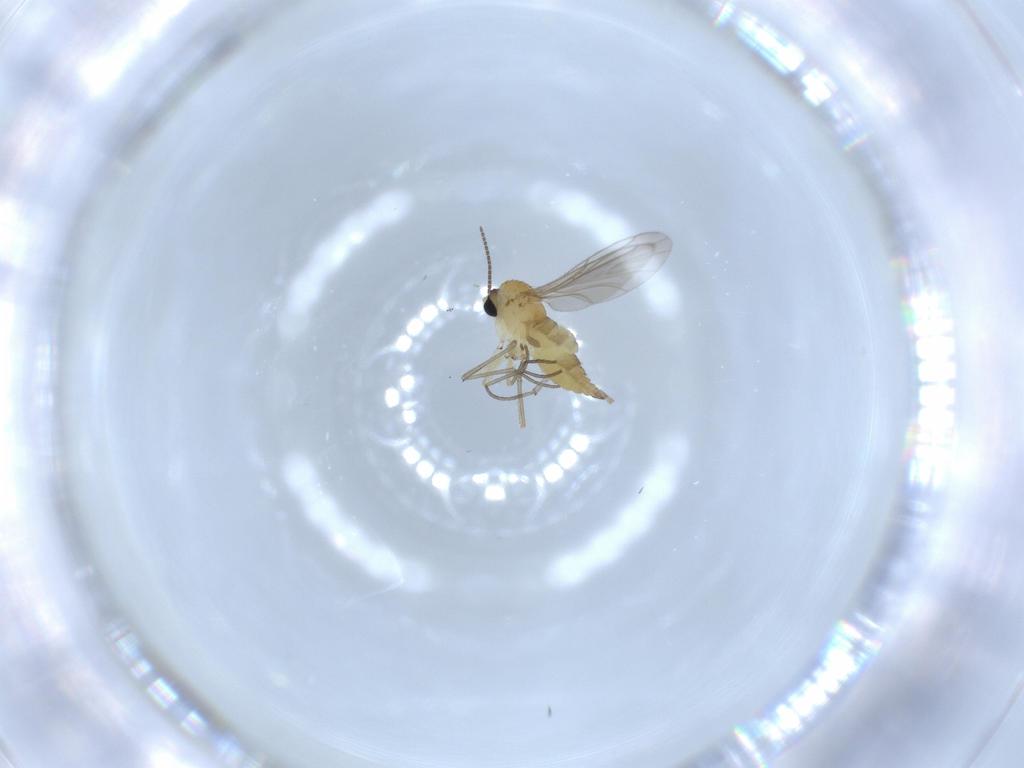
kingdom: Animalia
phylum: Arthropoda
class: Insecta
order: Diptera
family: Sciaridae
